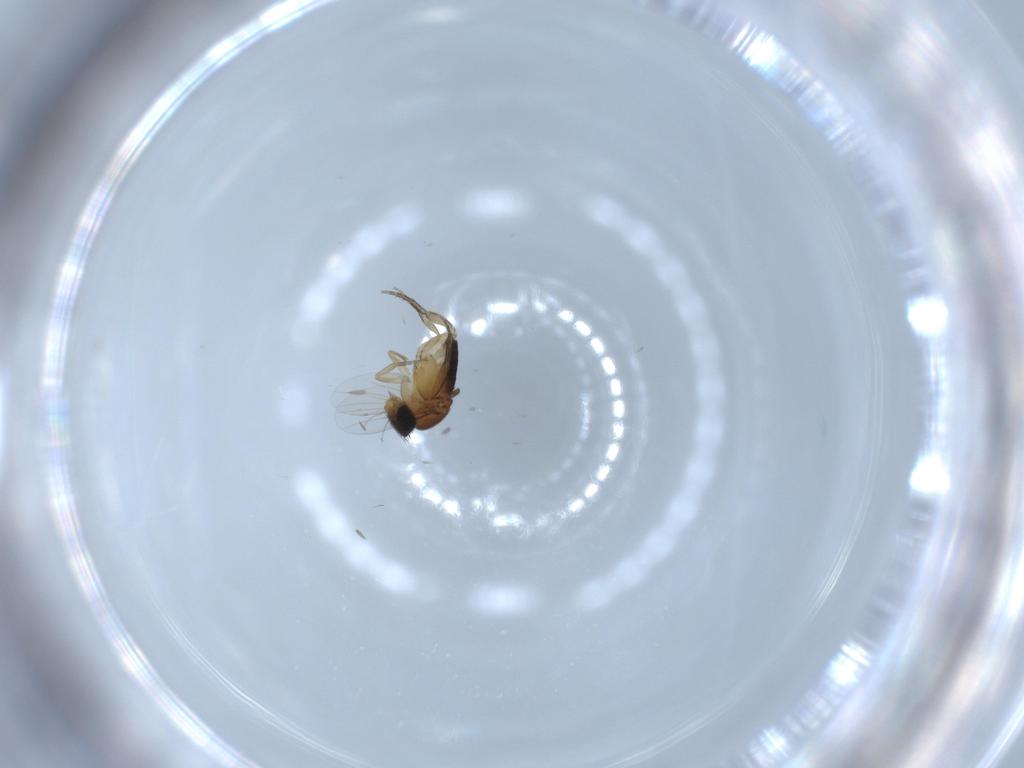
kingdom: Animalia
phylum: Arthropoda
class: Insecta
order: Diptera
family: Phoridae
